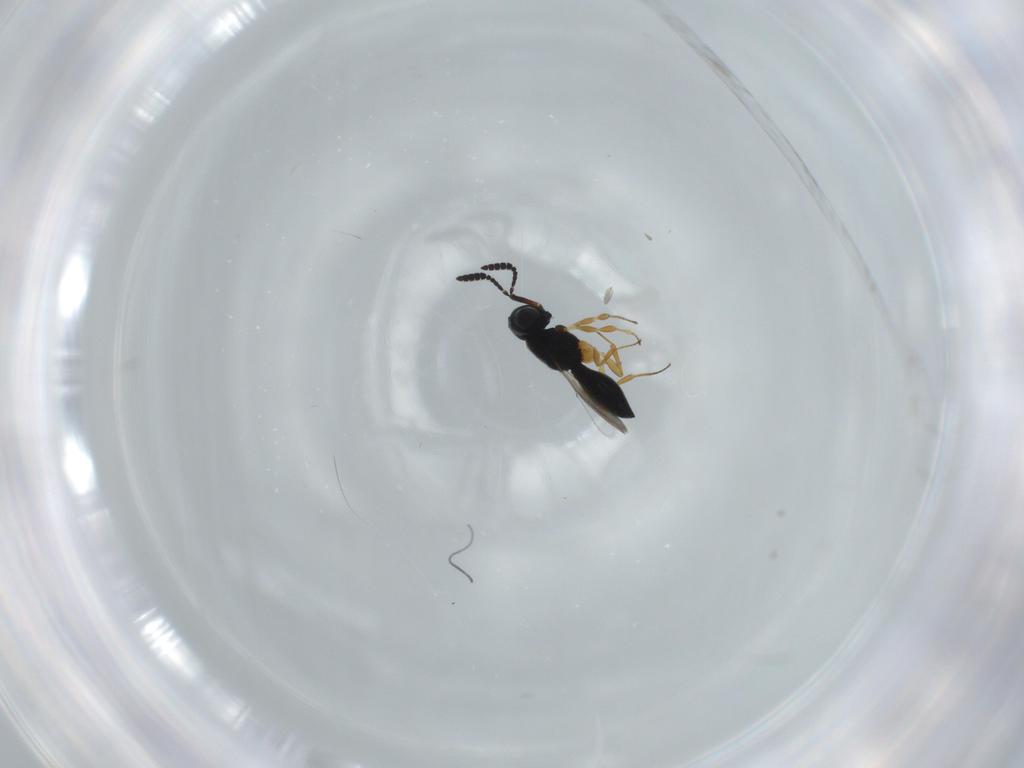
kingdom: Animalia
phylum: Arthropoda
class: Insecta
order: Hymenoptera
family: Scelionidae
